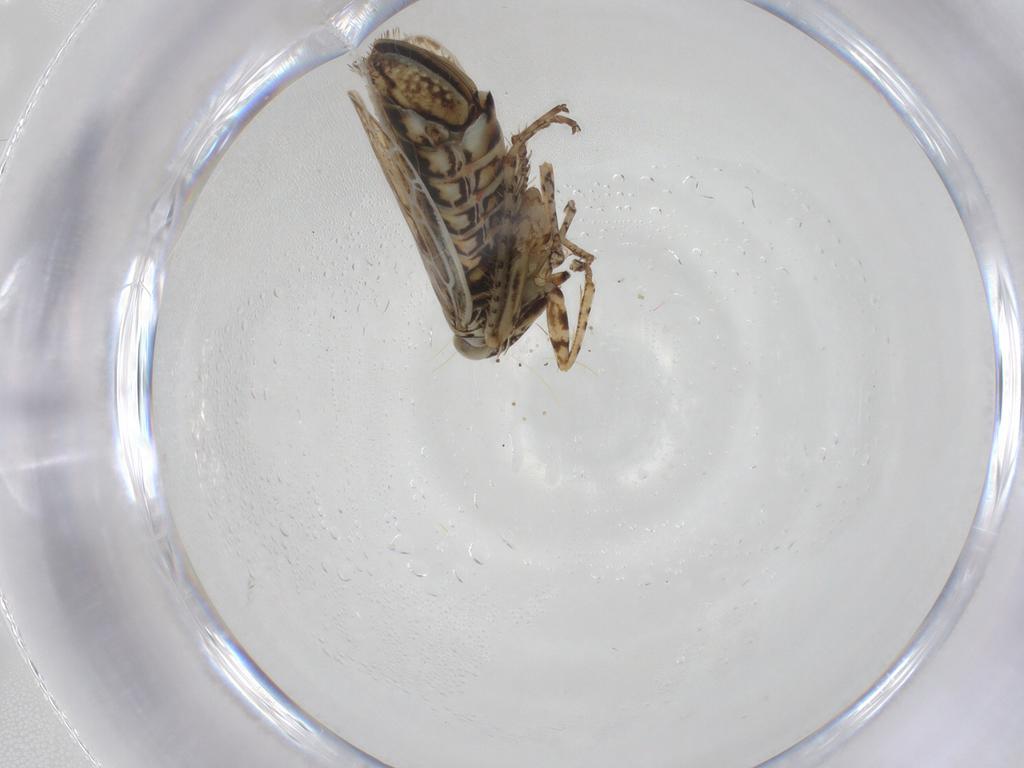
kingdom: Animalia
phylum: Arthropoda
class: Insecta
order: Hemiptera
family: Cicadellidae
